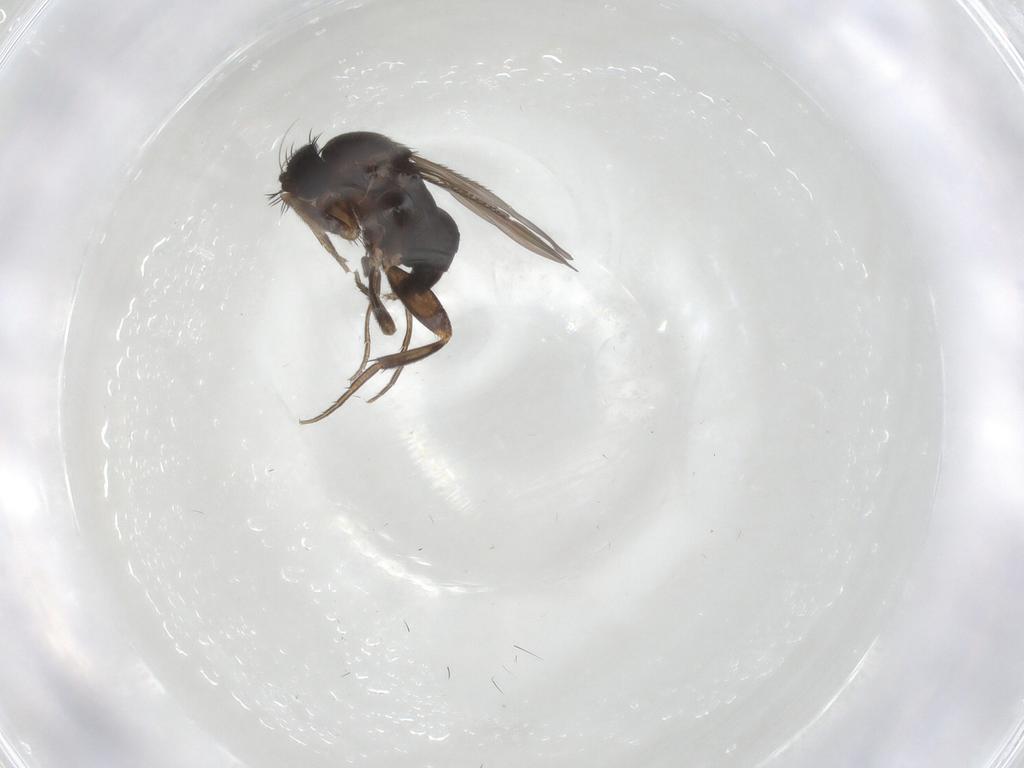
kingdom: Animalia
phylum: Arthropoda
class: Insecta
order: Diptera
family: Phoridae
